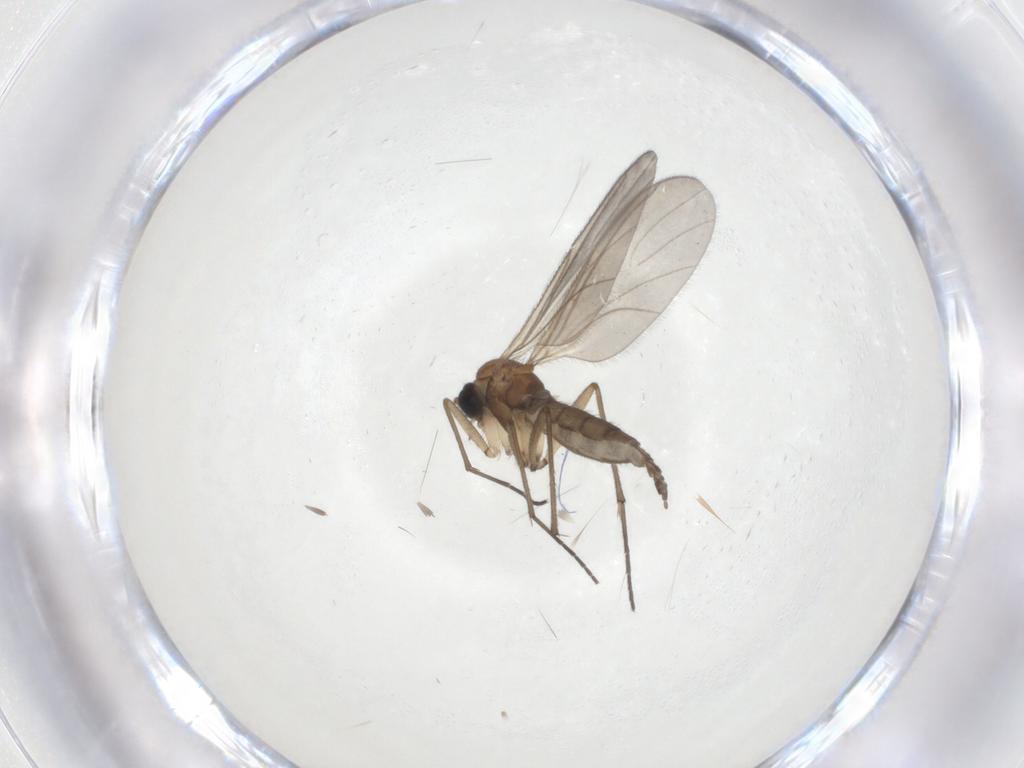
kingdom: Animalia
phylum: Arthropoda
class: Insecta
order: Diptera
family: Sciaridae
